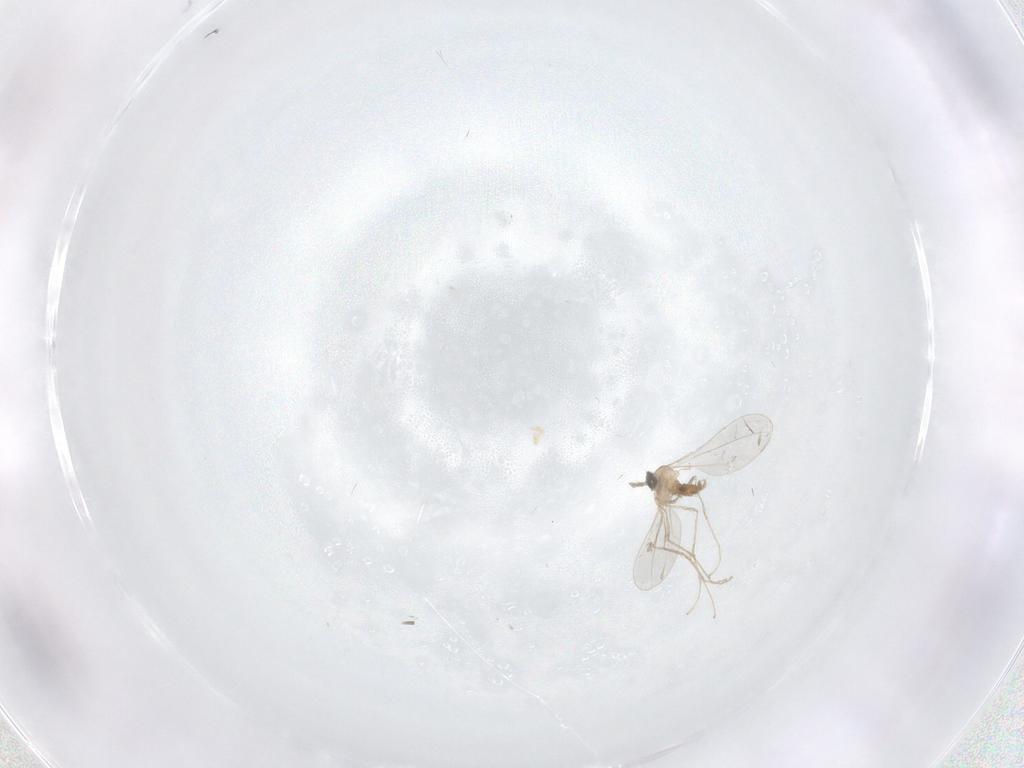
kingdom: Animalia
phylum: Arthropoda
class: Insecta
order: Diptera
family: Cecidomyiidae
